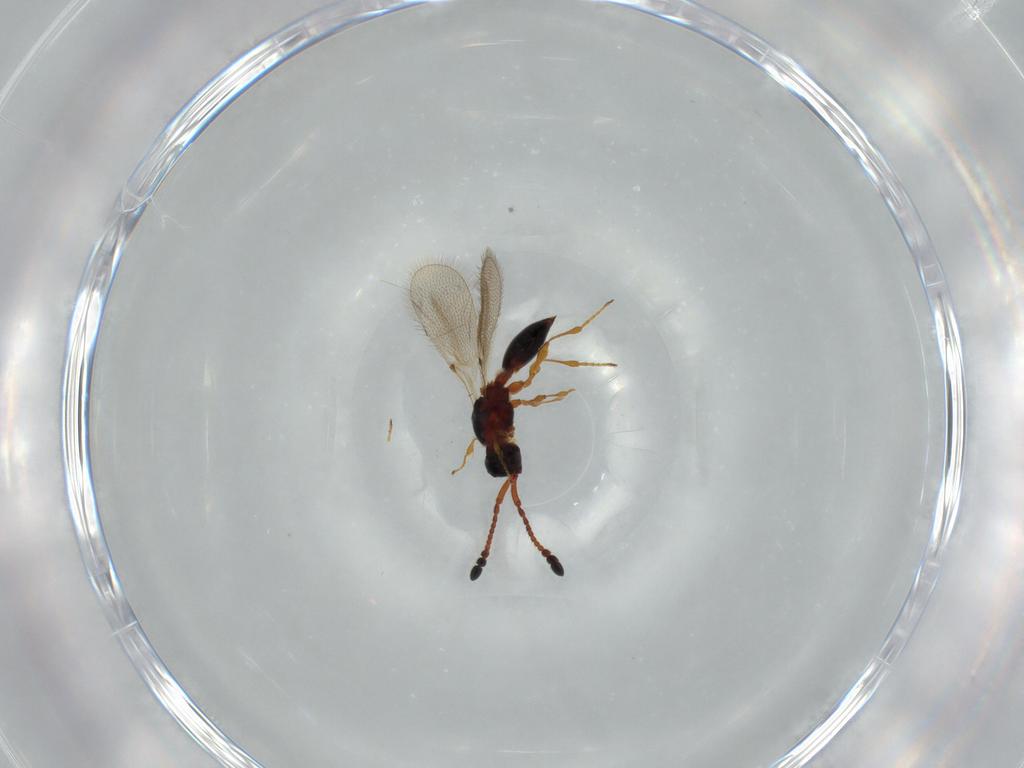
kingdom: Animalia
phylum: Arthropoda
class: Insecta
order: Hymenoptera
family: Diapriidae
